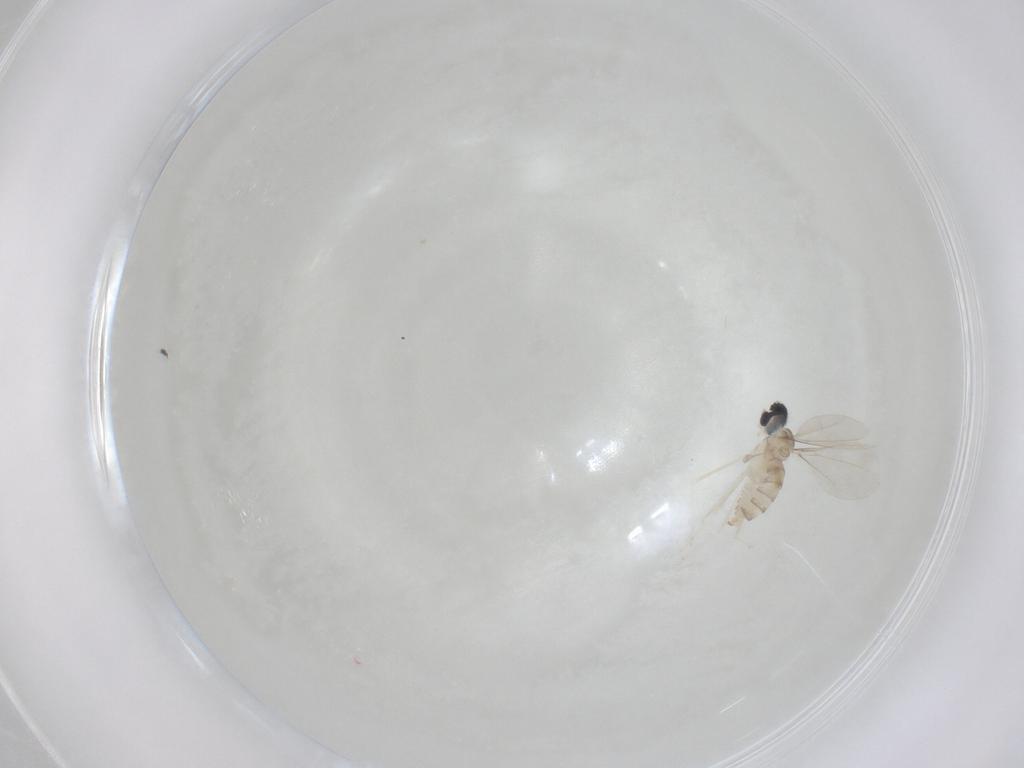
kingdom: Animalia
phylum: Arthropoda
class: Insecta
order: Diptera
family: Cecidomyiidae
